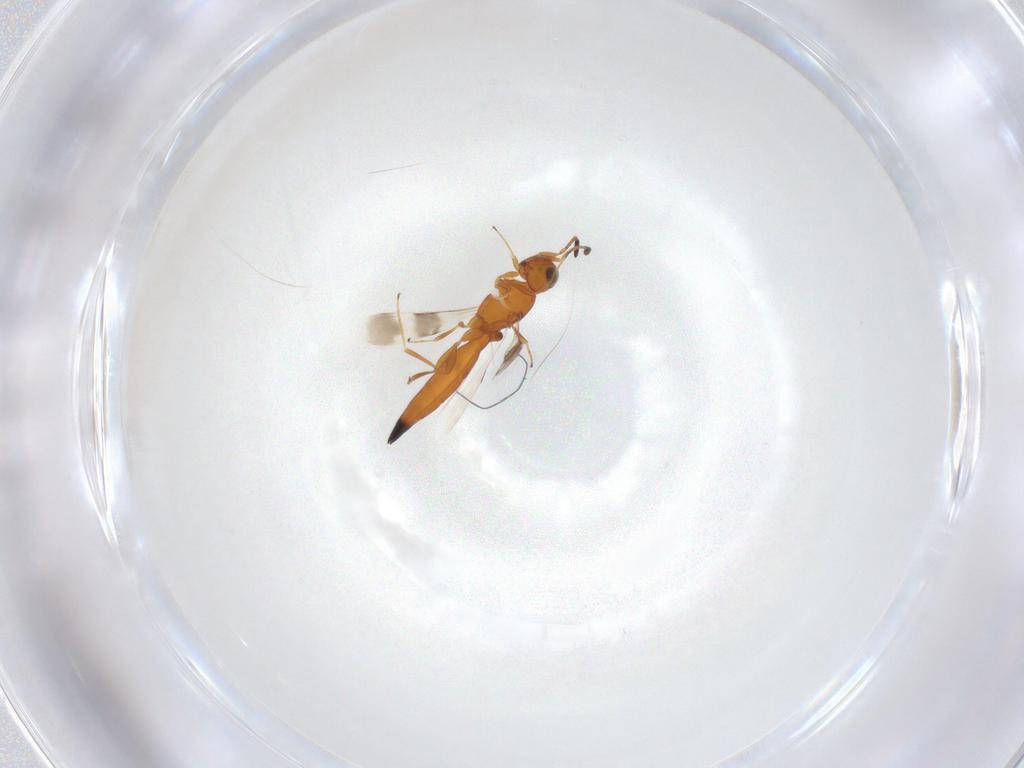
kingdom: Animalia
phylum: Arthropoda
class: Insecta
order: Hymenoptera
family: Scelionidae
